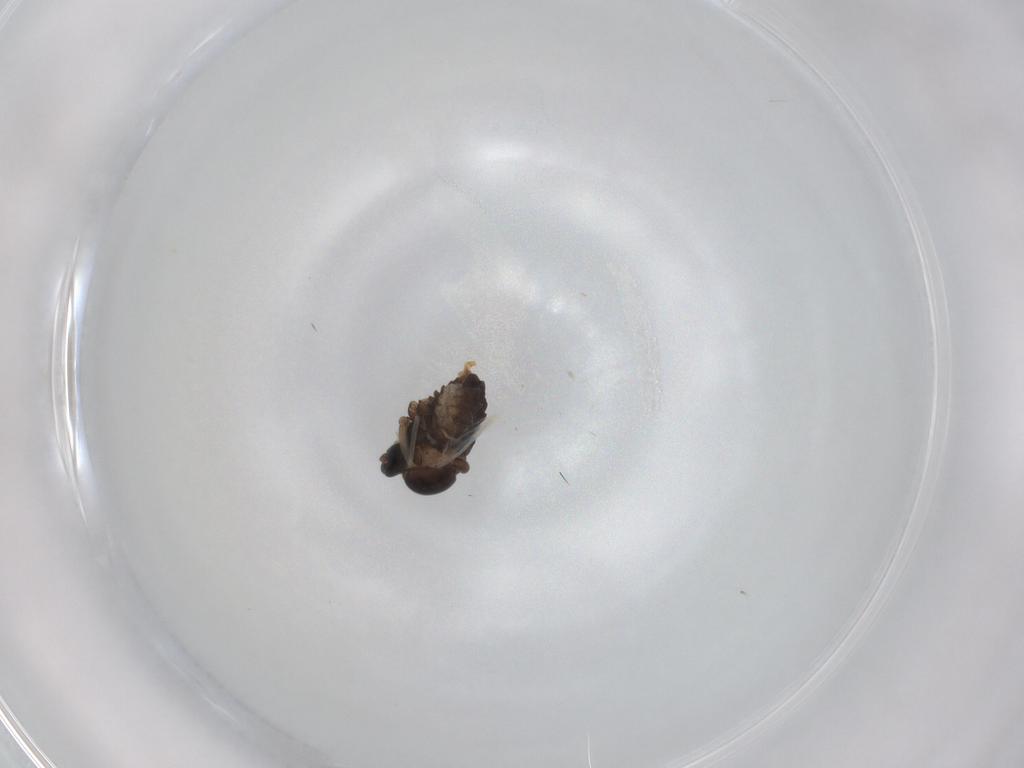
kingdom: Animalia
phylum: Arthropoda
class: Insecta
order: Diptera
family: Cecidomyiidae
